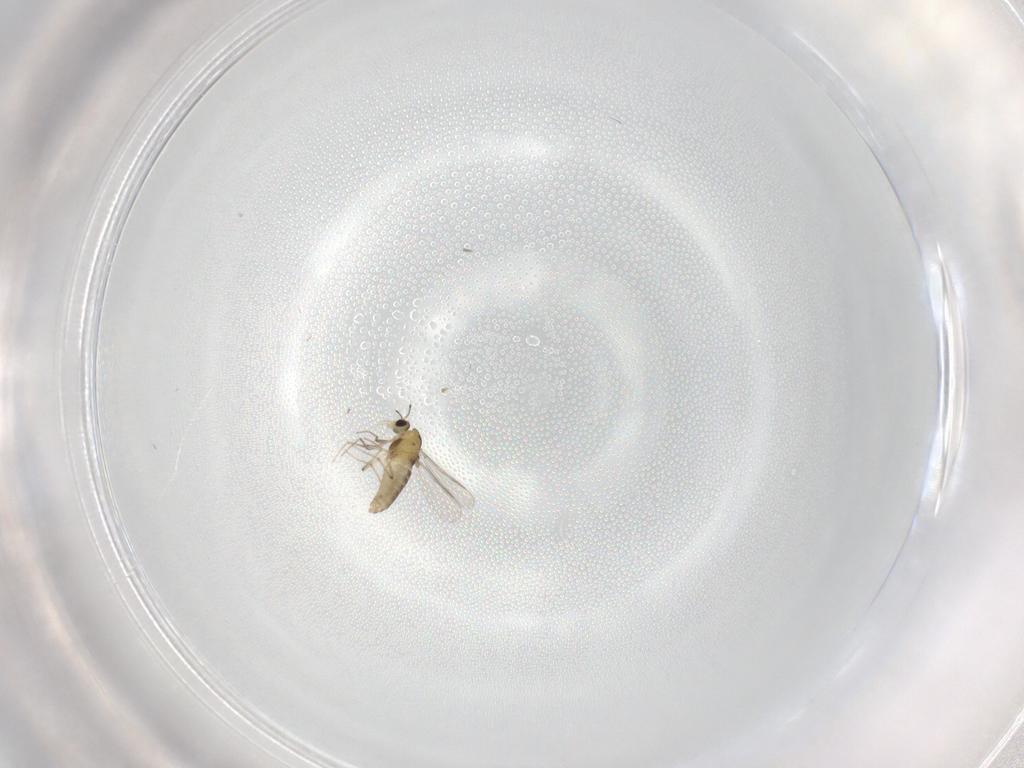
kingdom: Animalia
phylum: Arthropoda
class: Insecta
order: Diptera
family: Chironomidae
